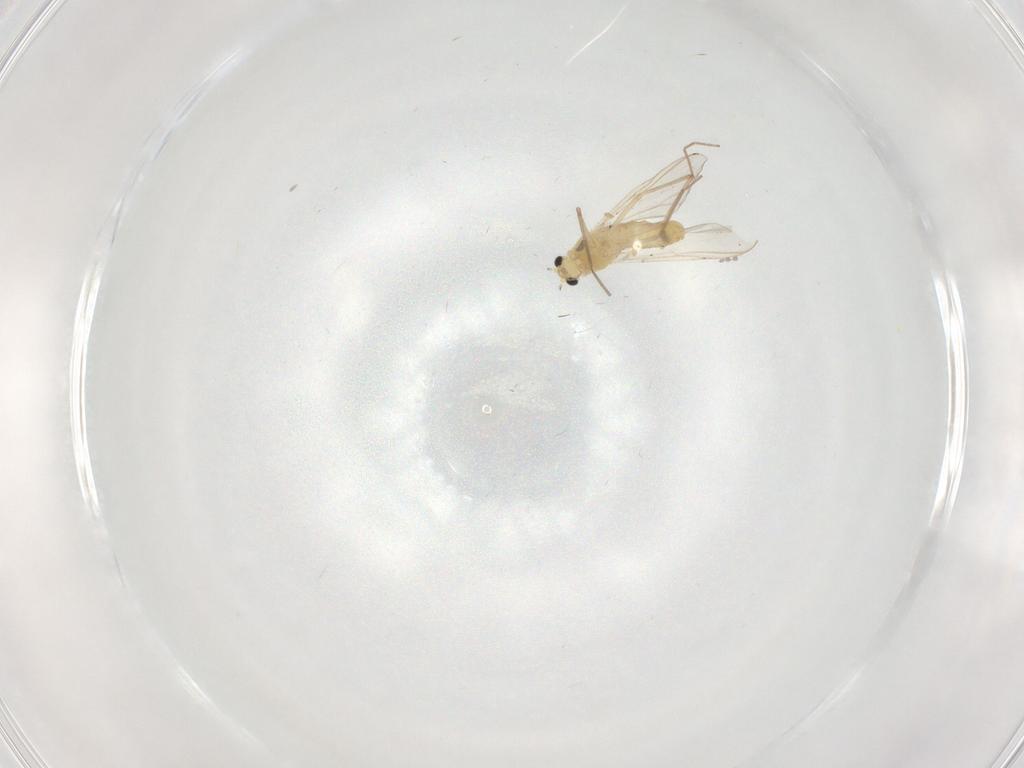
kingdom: Animalia
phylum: Arthropoda
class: Insecta
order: Diptera
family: Chironomidae
